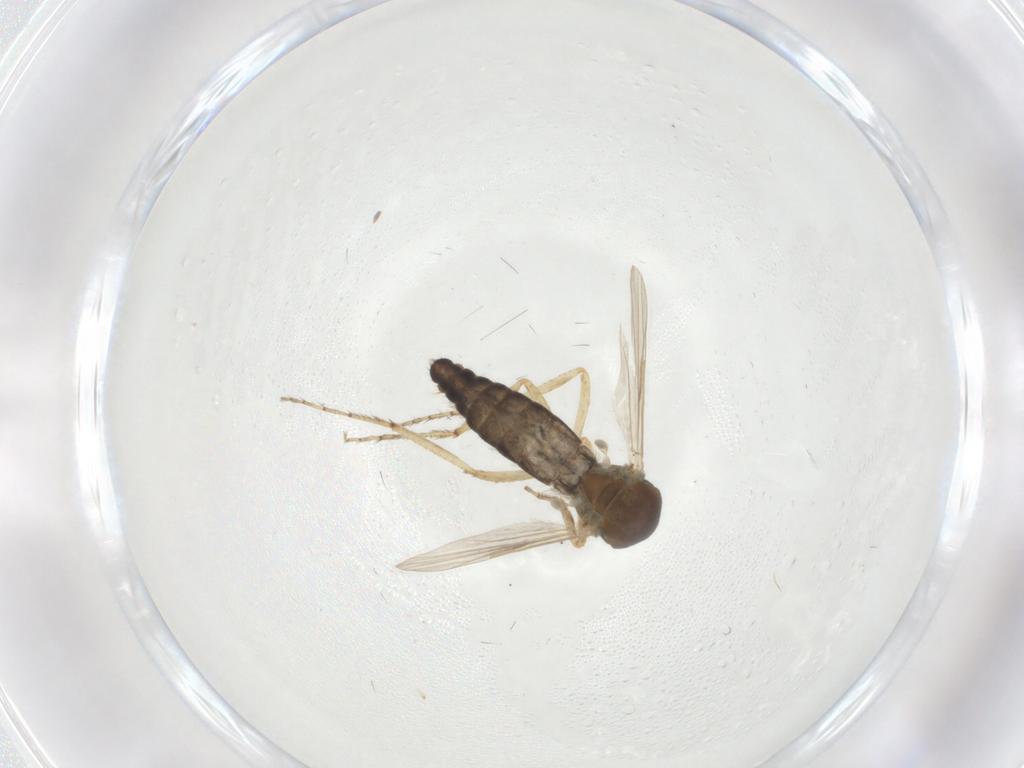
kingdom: Animalia
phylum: Arthropoda
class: Insecta
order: Diptera
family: Ceratopogonidae
